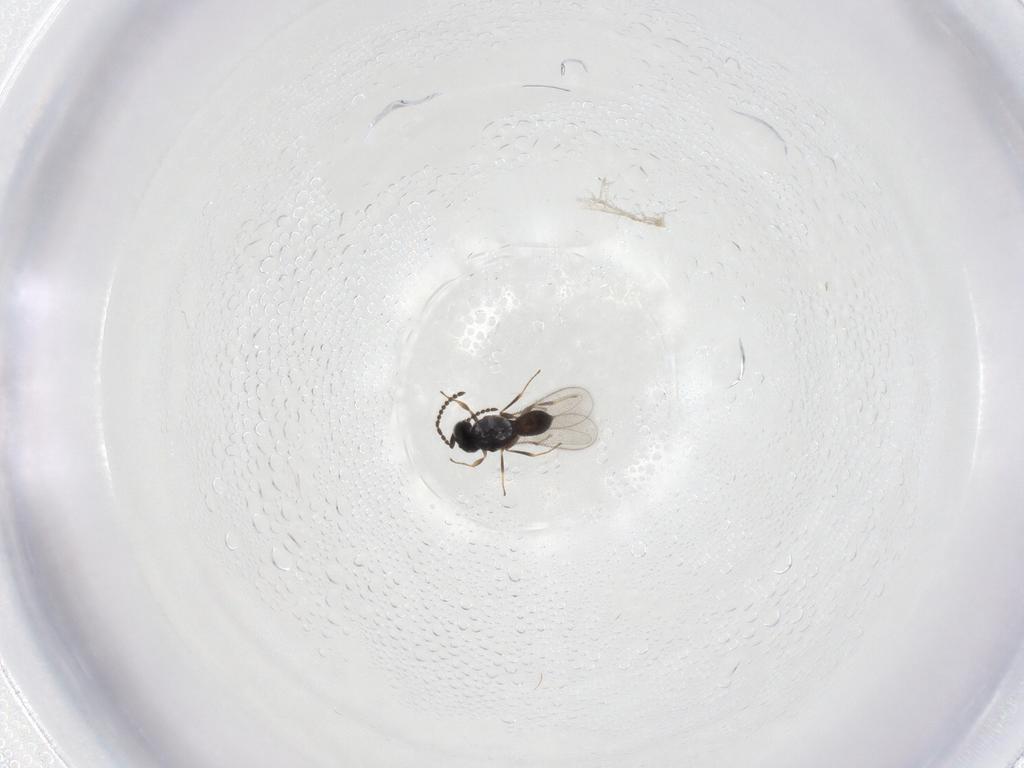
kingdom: Animalia
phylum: Arthropoda
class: Insecta
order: Hymenoptera
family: Scelionidae
